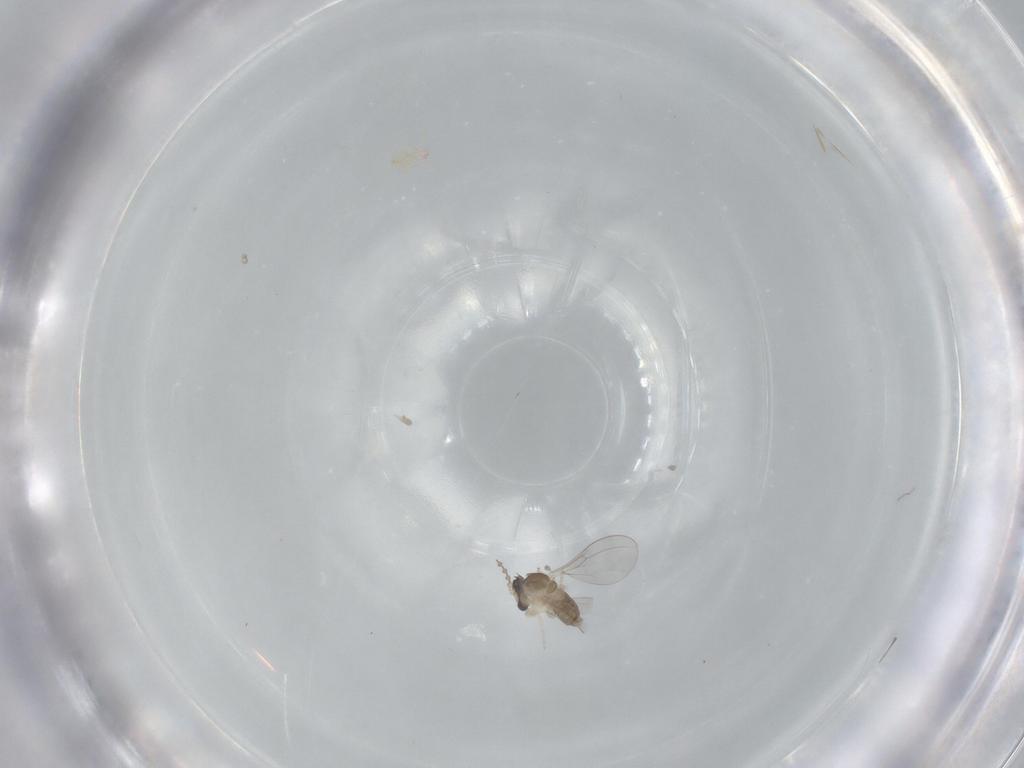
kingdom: Animalia
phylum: Arthropoda
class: Insecta
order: Diptera
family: Cecidomyiidae
